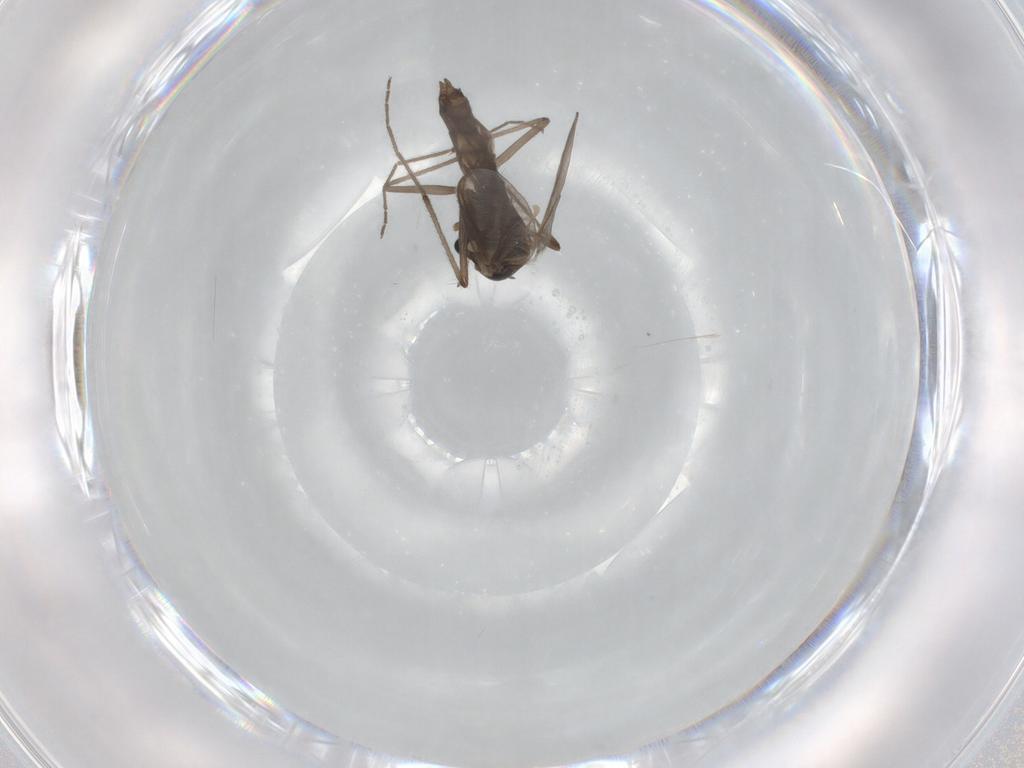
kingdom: Animalia
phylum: Arthropoda
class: Insecta
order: Diptera
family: Chironomidae
